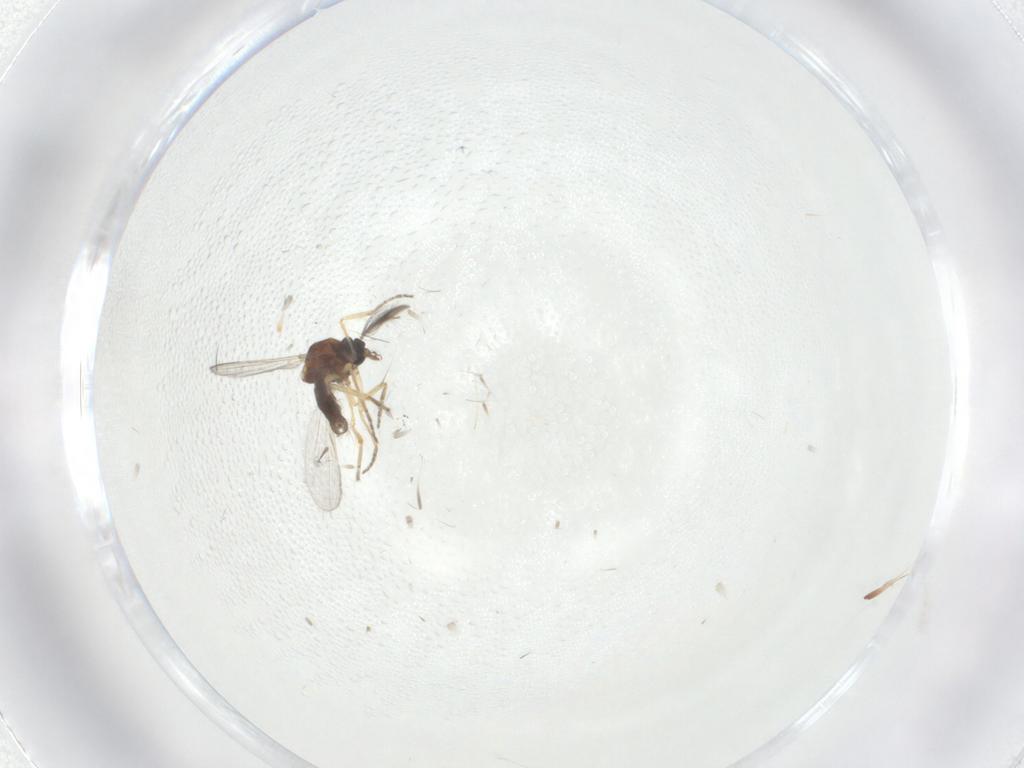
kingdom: Animalia
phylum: Arthropoda
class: Insecta
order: Diptera
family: Ceratopogonidae
